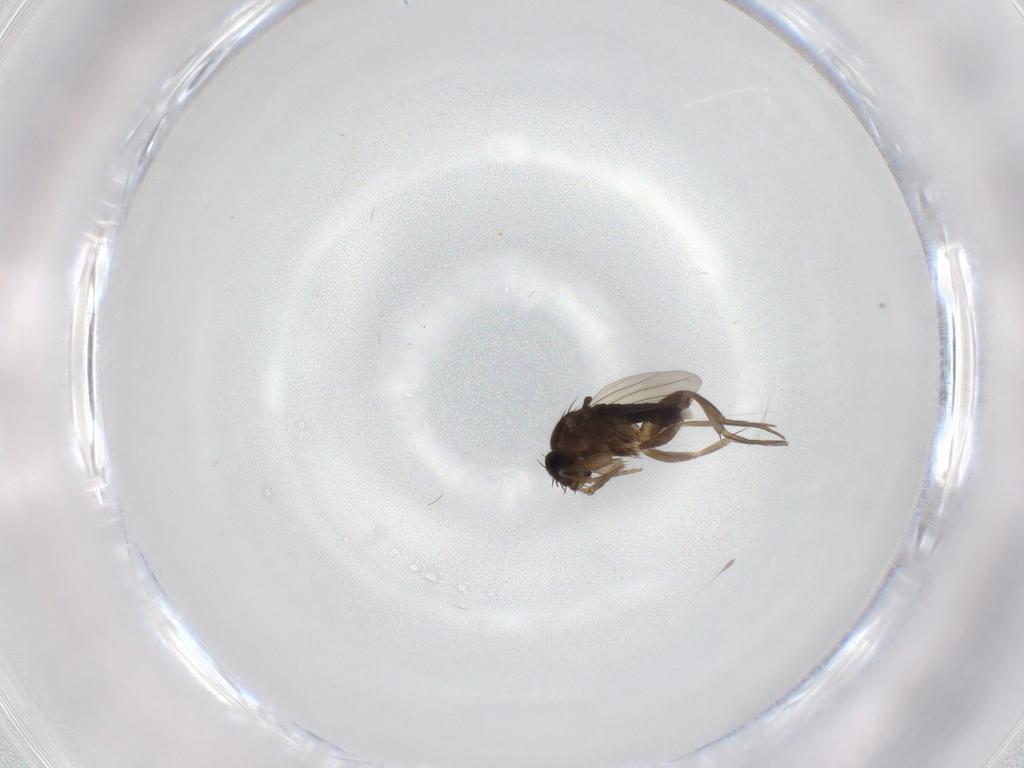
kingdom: Animalia
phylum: Arthropoda
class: Insecta
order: Diptera
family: Phoridae
